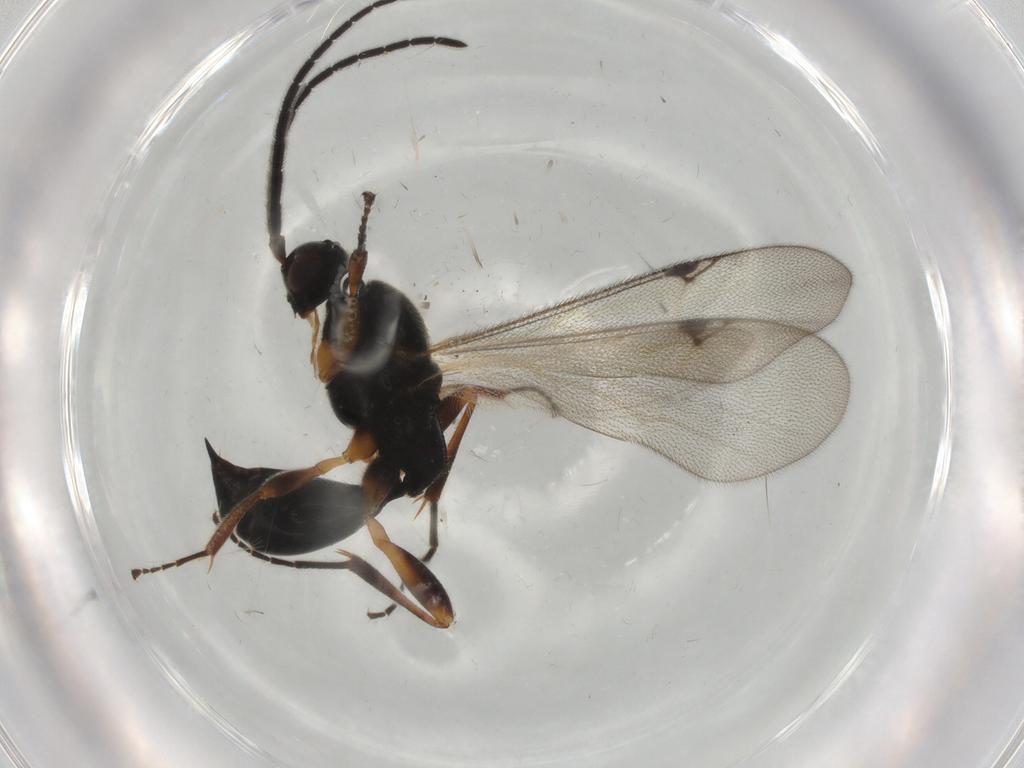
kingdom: Animalia
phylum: Arthropoda
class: Insecta
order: Hymenoptera
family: Proctotrupidae
